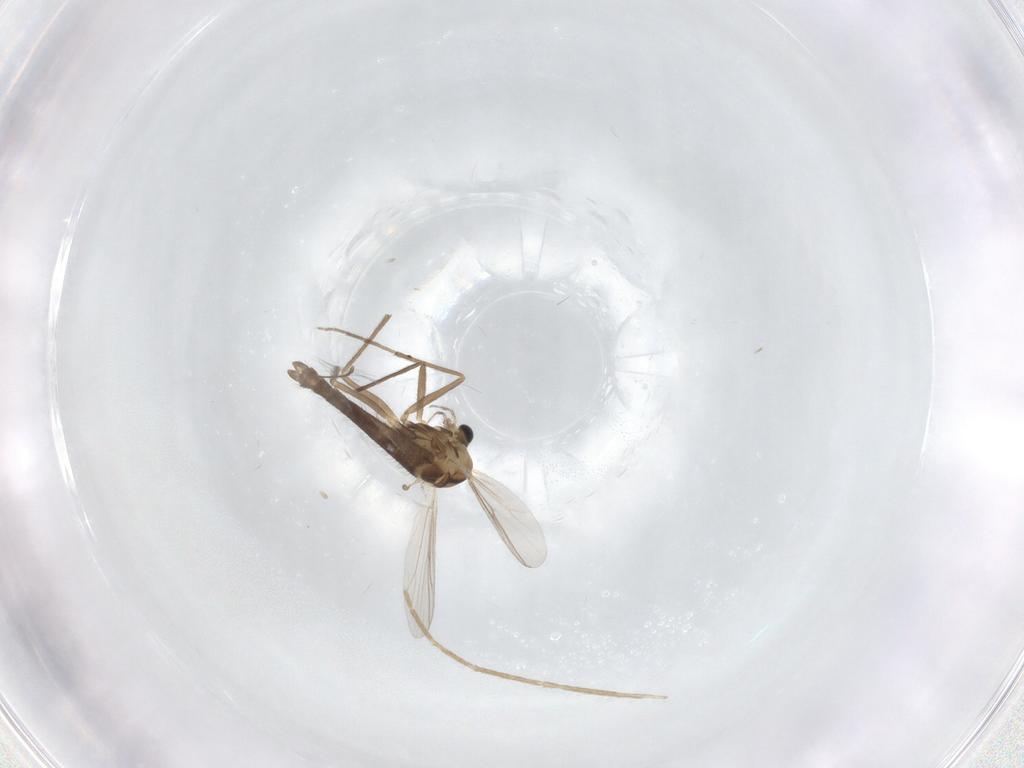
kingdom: Animalia
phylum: Arthropoda
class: Insecta
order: Diptera
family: Chironomidae
